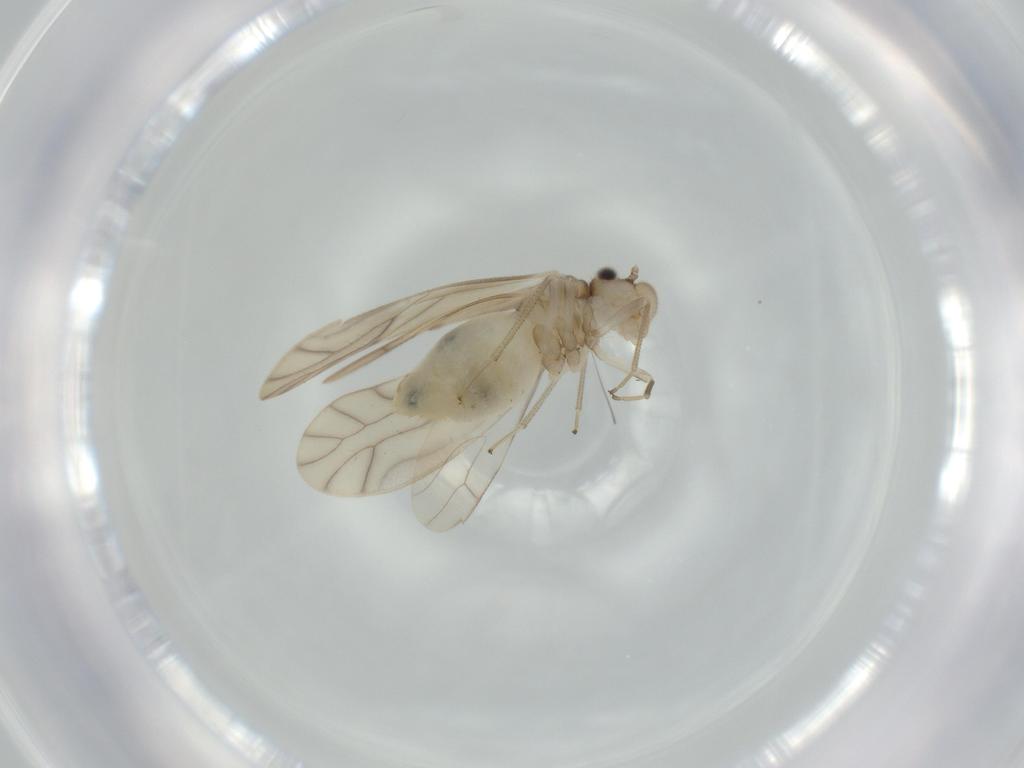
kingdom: Animalia
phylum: Arthropoda
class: Insecta
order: Psocodea
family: Caeciliusidae
